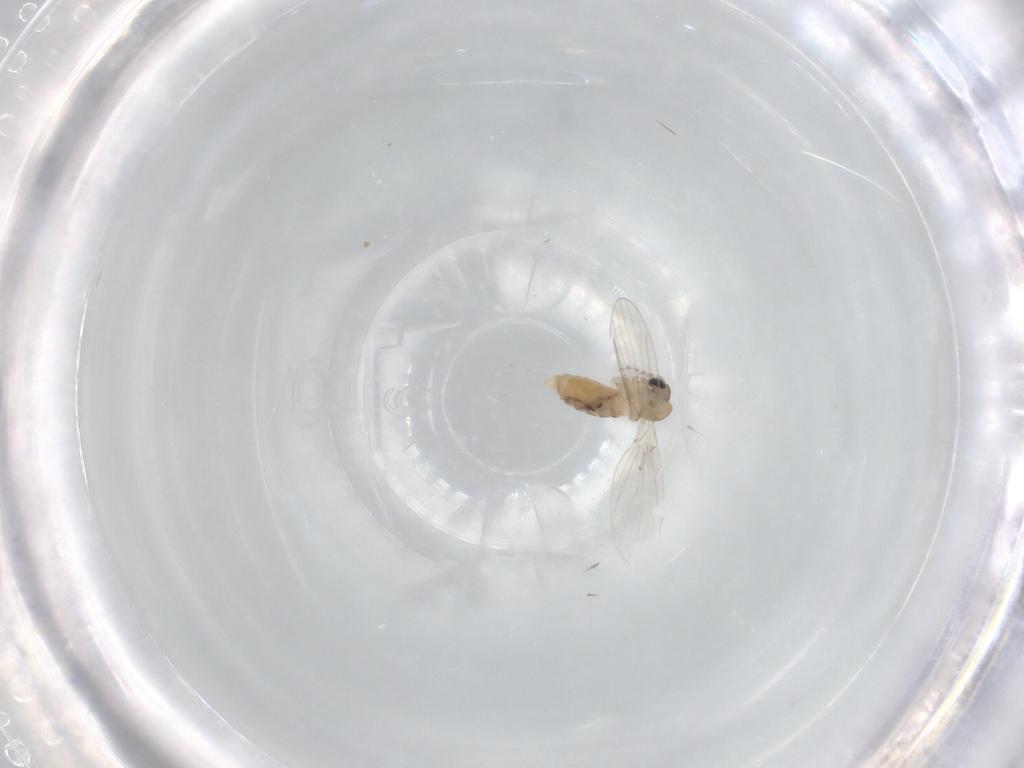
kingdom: Animalia
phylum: Arthropoda
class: Insecta
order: Diptera
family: Psychodidae
